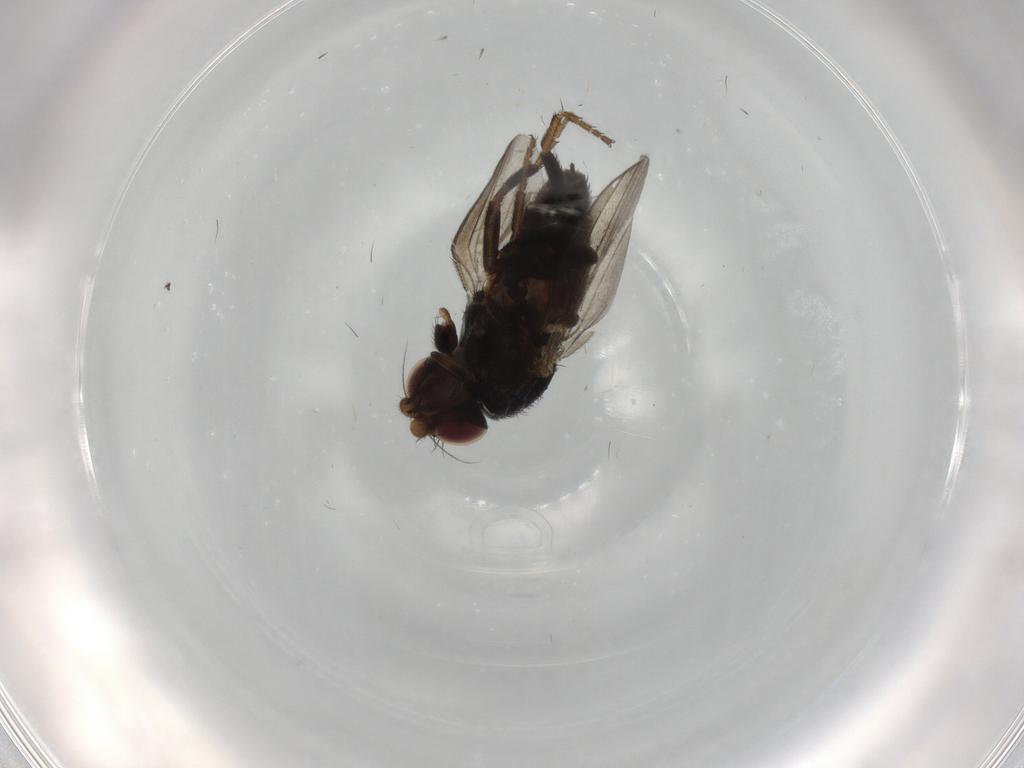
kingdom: Animalia
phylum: Arthropoda
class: Insecta
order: Diptera
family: Milichiidae
